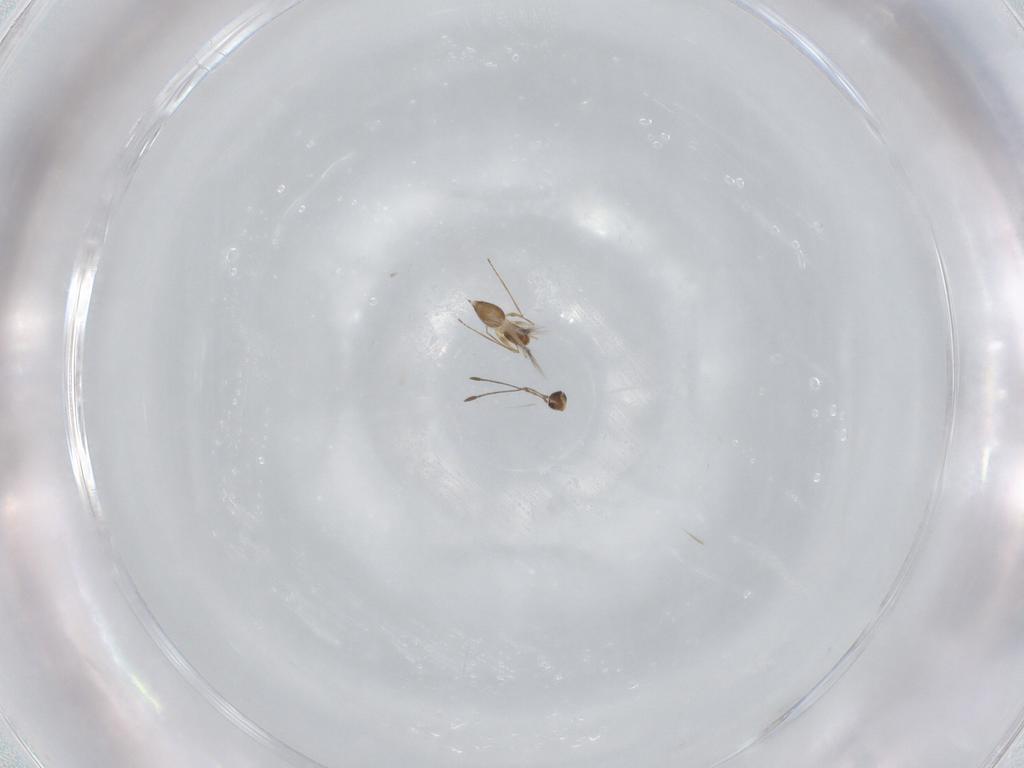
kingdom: Animalia
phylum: Arthropoda
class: Insecta
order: Hymenoptera
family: Mymaridae
